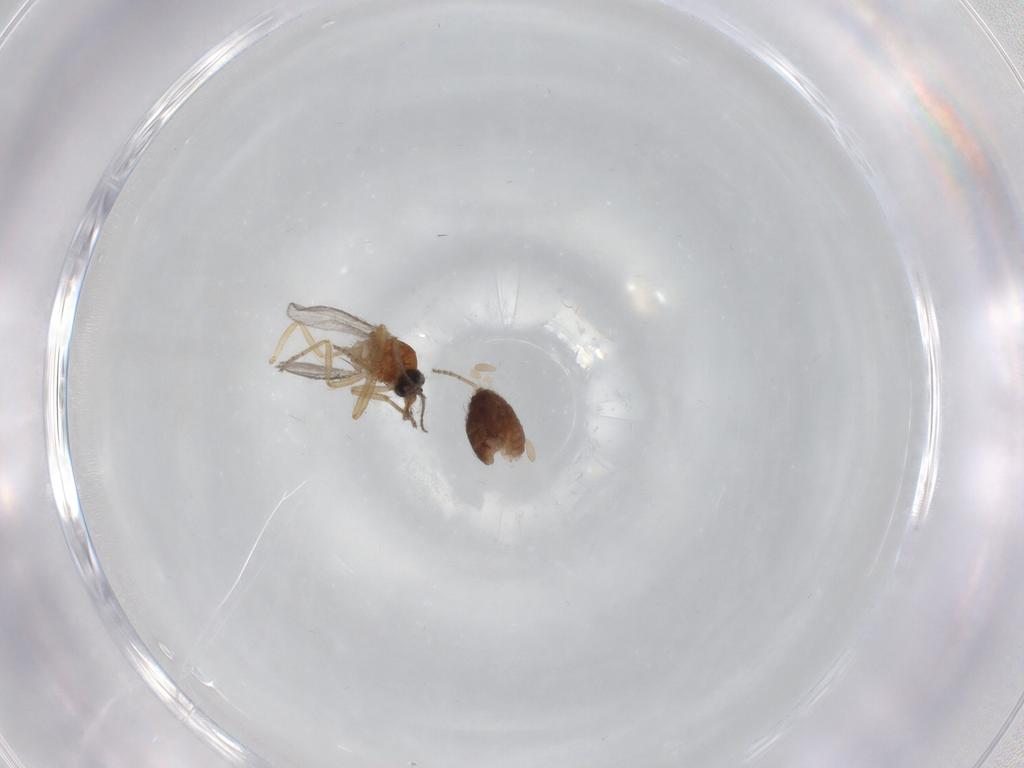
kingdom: Animalia
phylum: Arthropoda
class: Insecta
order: Diptera
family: Ceratopogonidae
